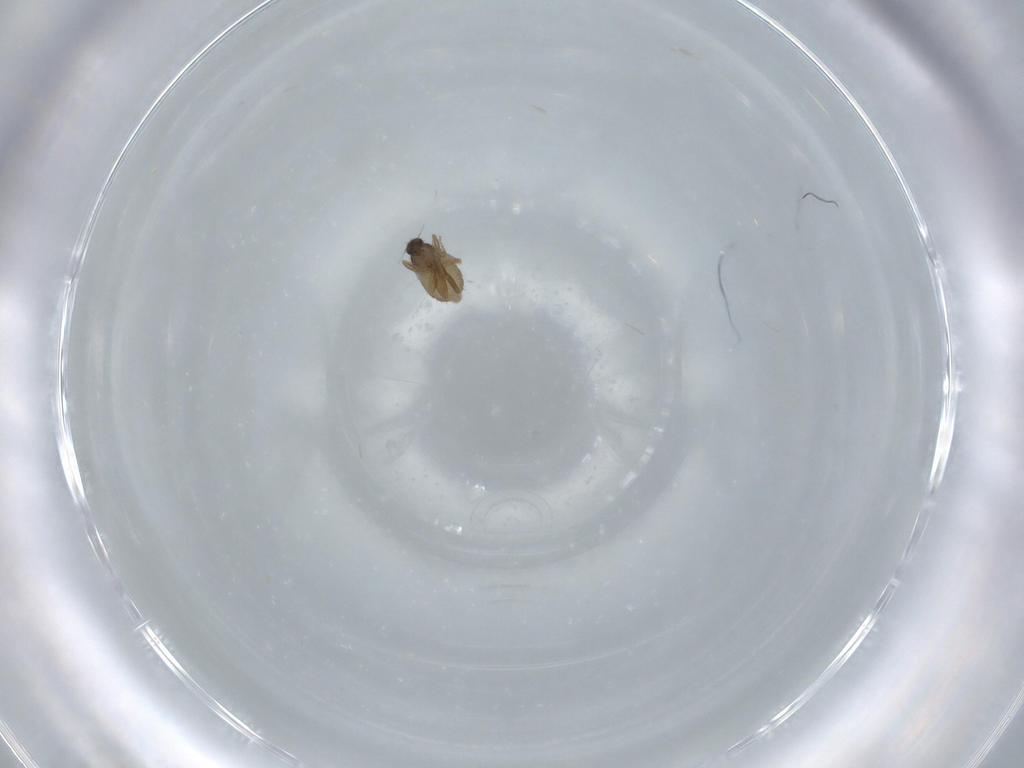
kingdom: Animalia
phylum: Arthropoda
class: Insecta
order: Diptera
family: Phoridae
